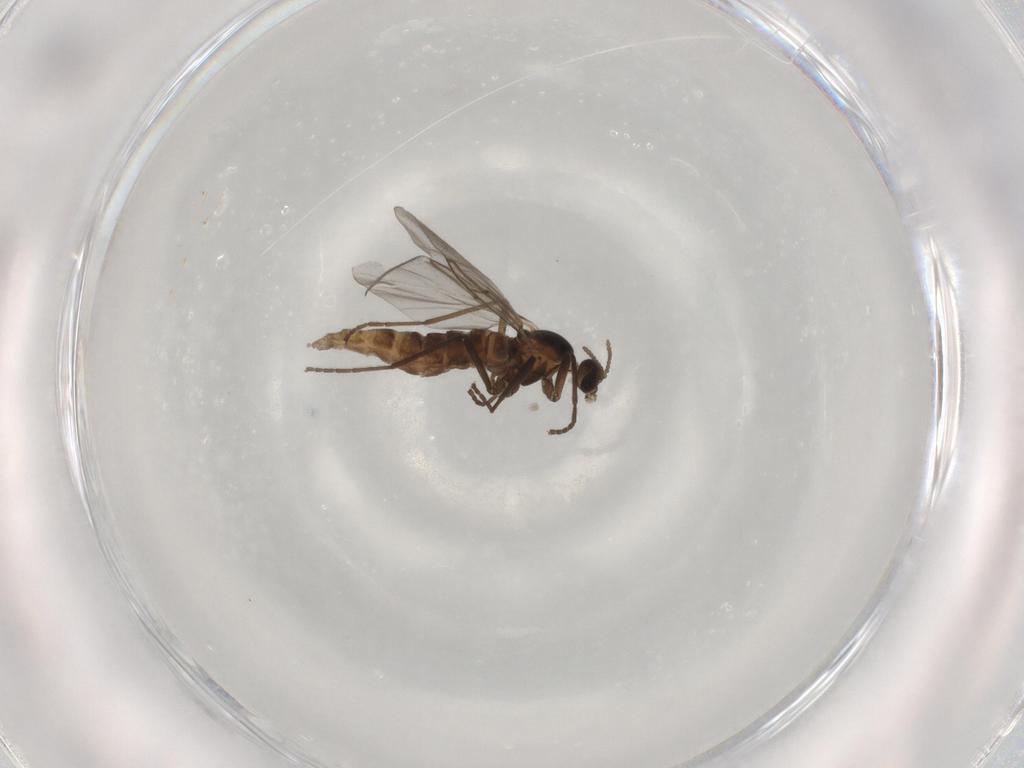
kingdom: Animalia
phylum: Arthropoda
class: Insecta
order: Diptera
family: Cecidomyiidae
